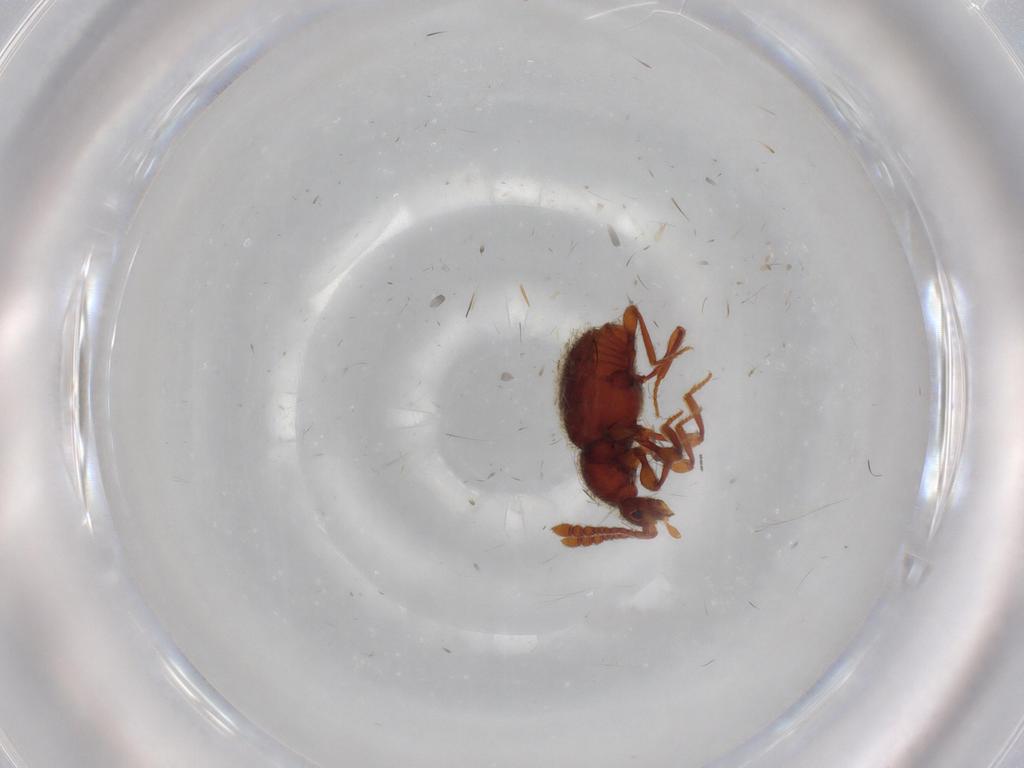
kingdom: Animalia
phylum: Arthropoda
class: Insecta
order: Coleoptera
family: Staphylinidae
